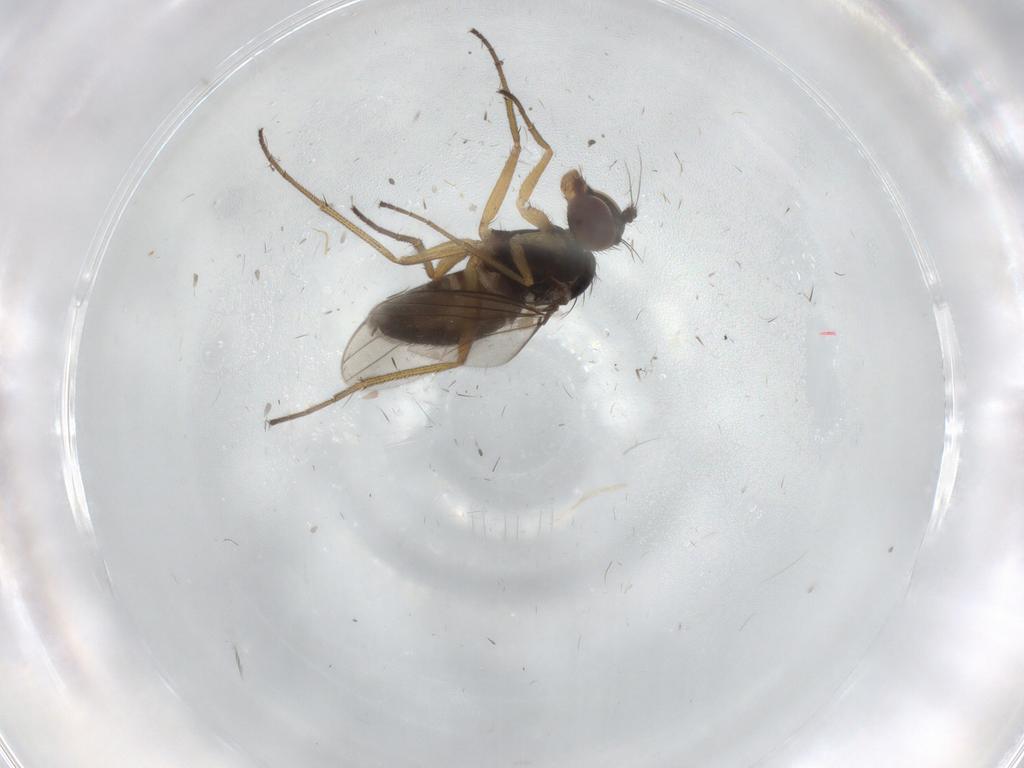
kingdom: Animalia
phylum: Arthropoda
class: Insecta
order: Diptera
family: Dolichopodidae
